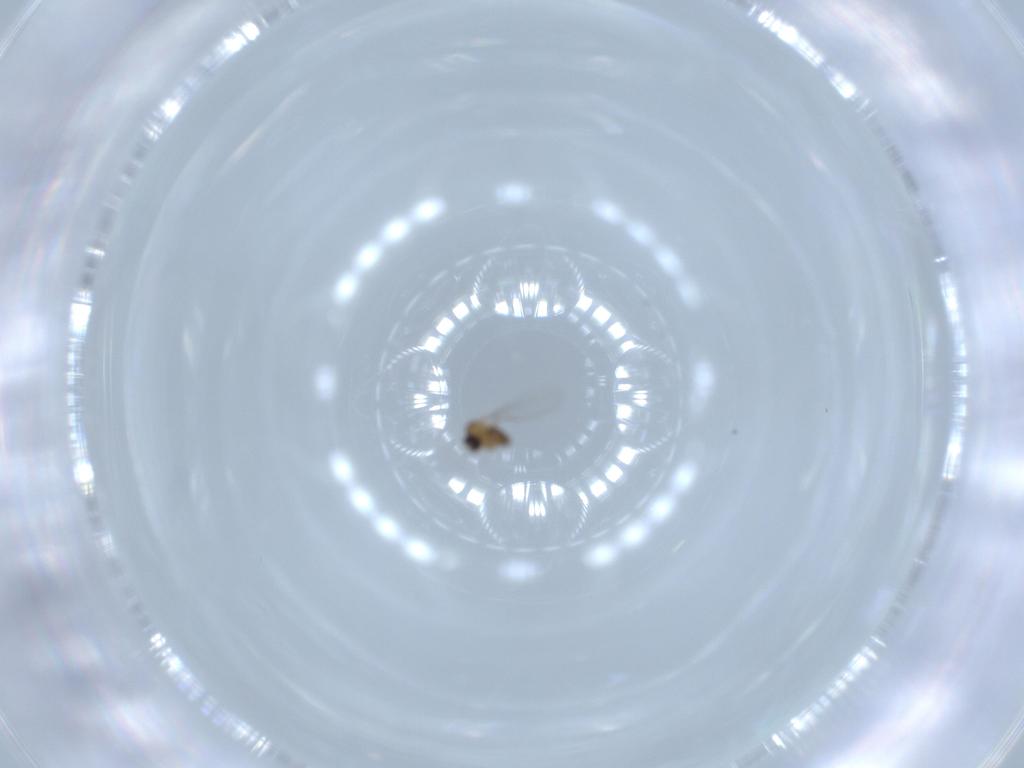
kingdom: Animalia
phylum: Arthropoda
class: Insecta
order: Diptera
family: Cecidomyiidae
